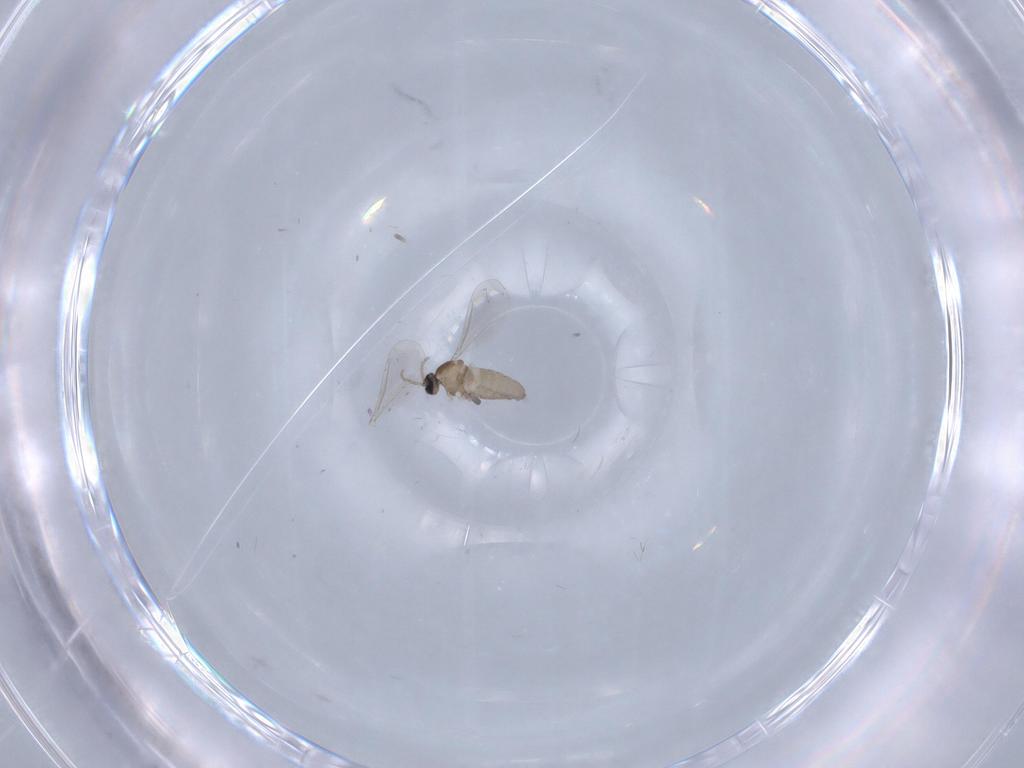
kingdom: Animalia
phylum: Arthropoda
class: Insecta
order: Diptera
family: Cecidomyiidae
